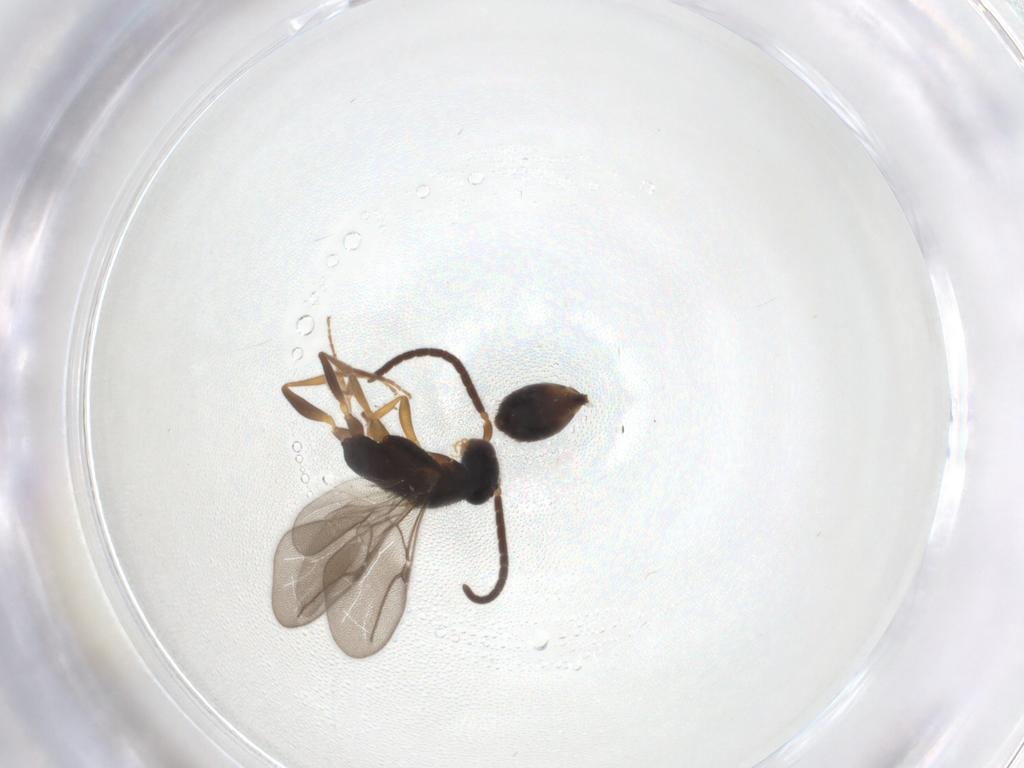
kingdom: Animalia
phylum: Arthropoda
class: Insecta
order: Hymenoptera
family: Bethylidae
